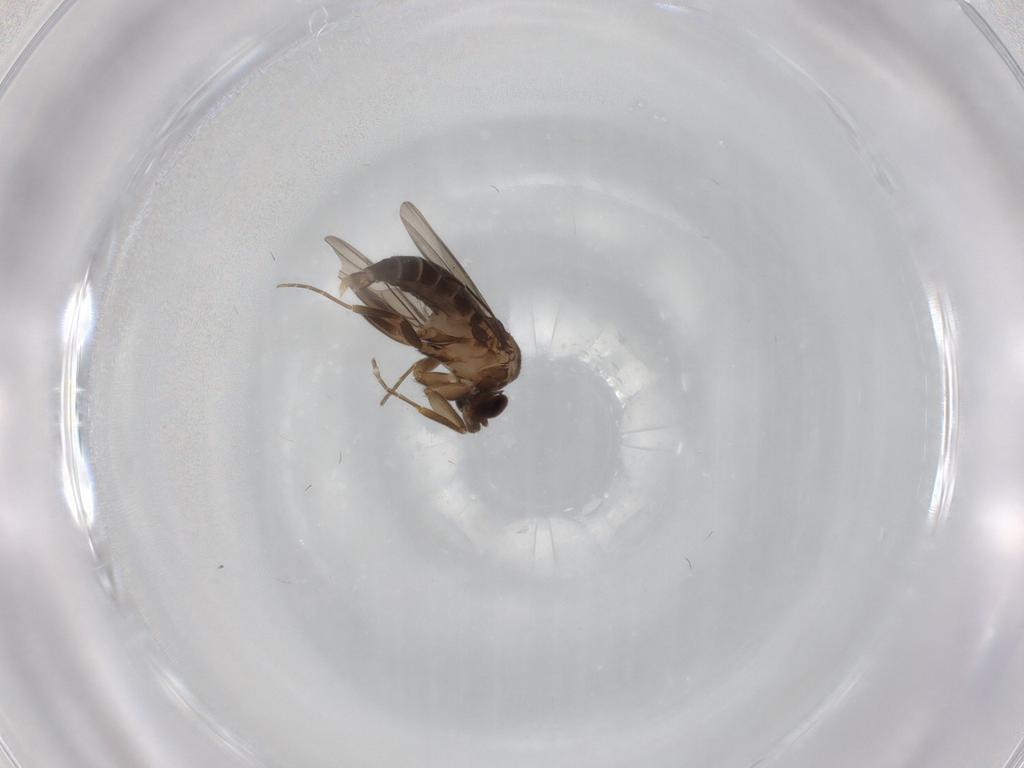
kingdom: Animalia
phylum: Arthropoda
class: Insecta
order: Diptera
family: Phoridae
